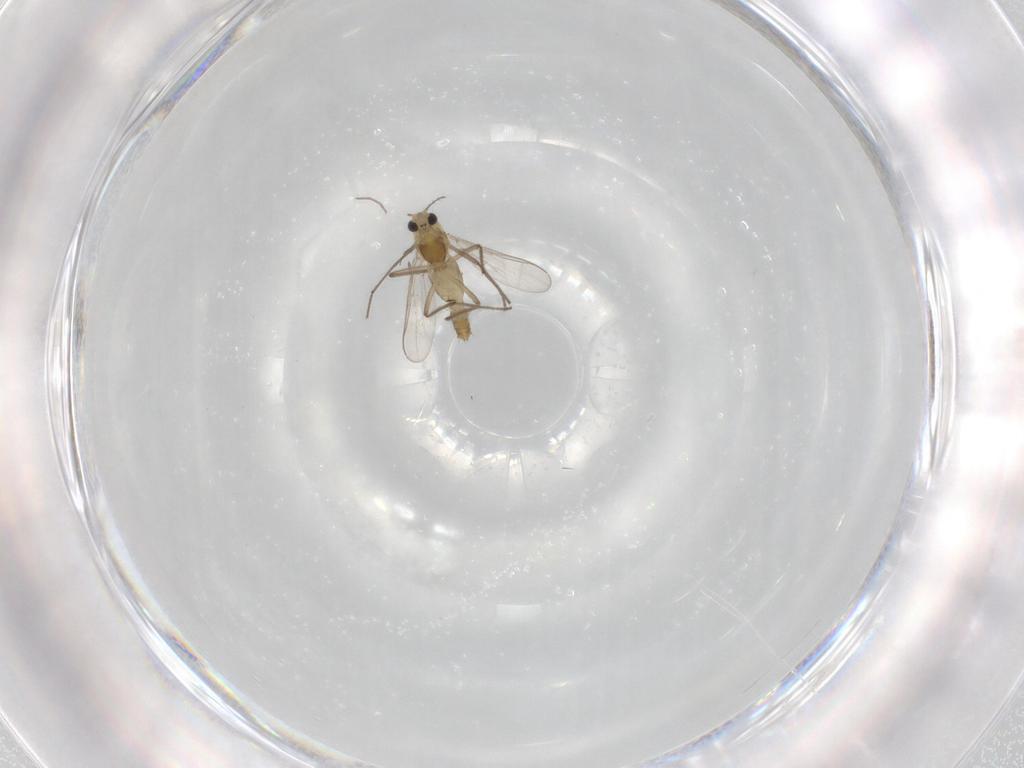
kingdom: Animalia
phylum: Arthropoda
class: Insecta
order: Diptera
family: Chironomidae
